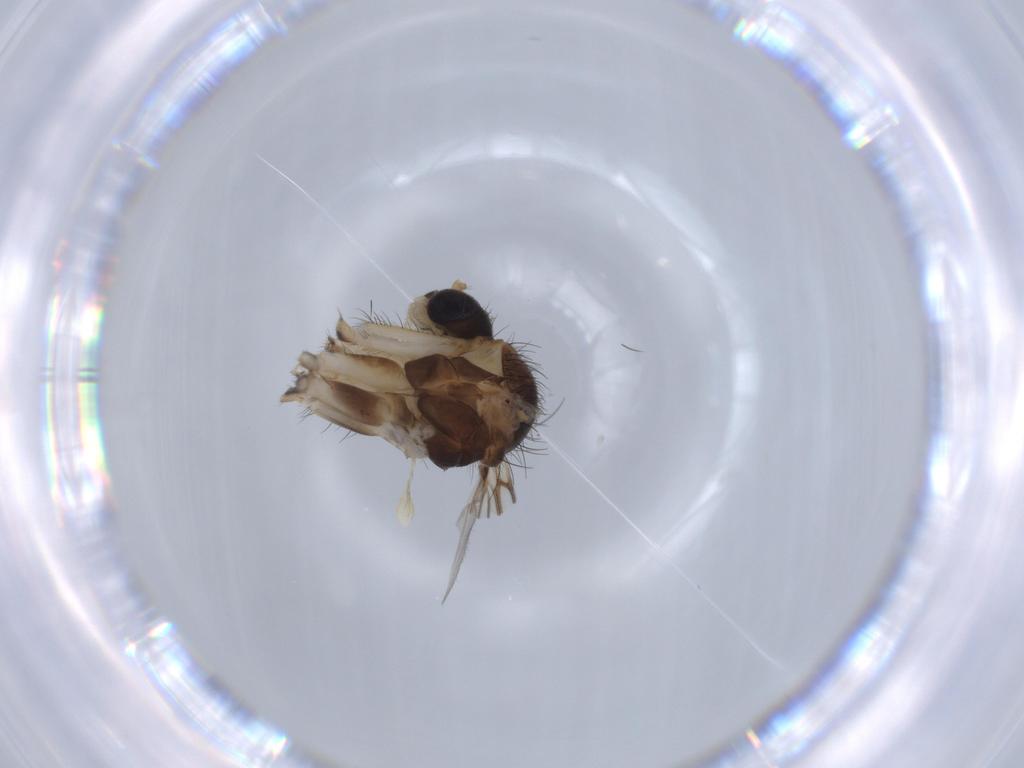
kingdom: Animalia
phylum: Arthropoda
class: Insecta
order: Diptera
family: Cecidomyiidae
